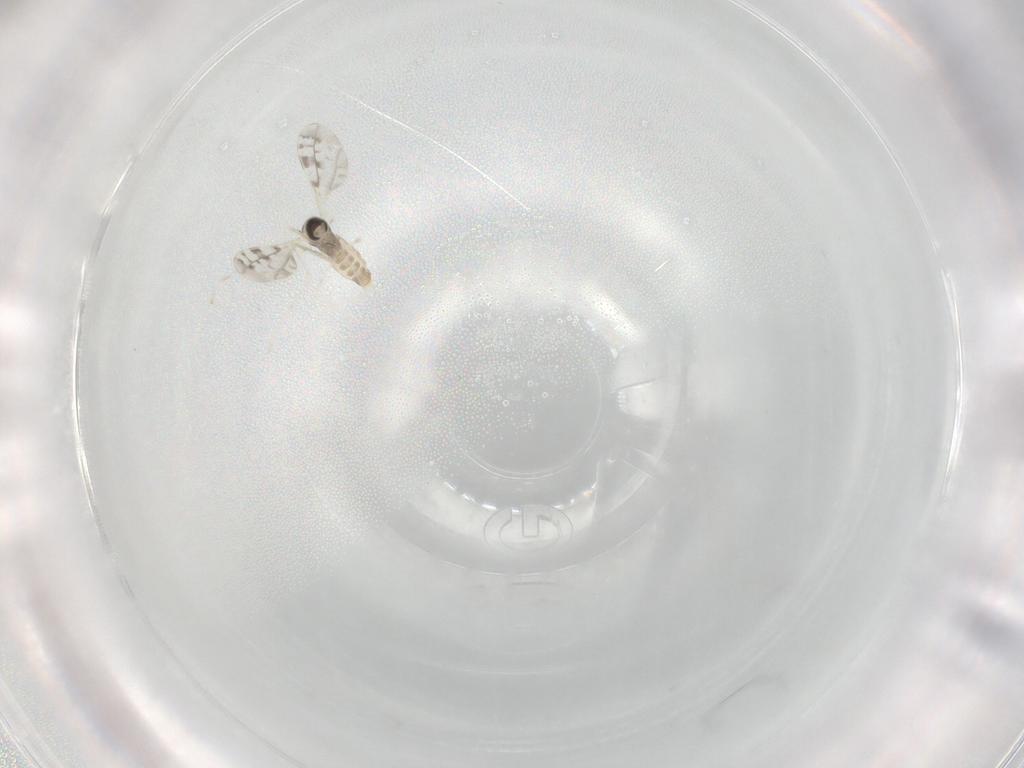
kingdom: Animalia
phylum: Arthropoda
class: Insecta
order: Diptera
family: Cecidomyiidae
